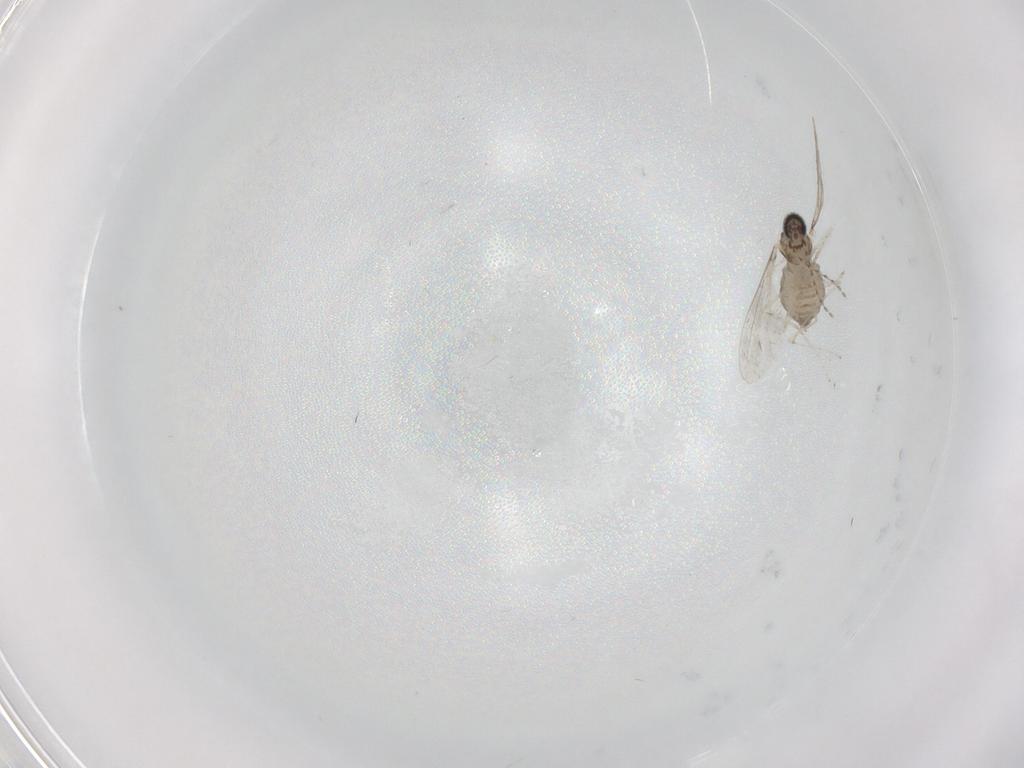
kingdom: Animalia
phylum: Arthropoda
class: Insecta
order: Diptera
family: Cecidomyiidae
